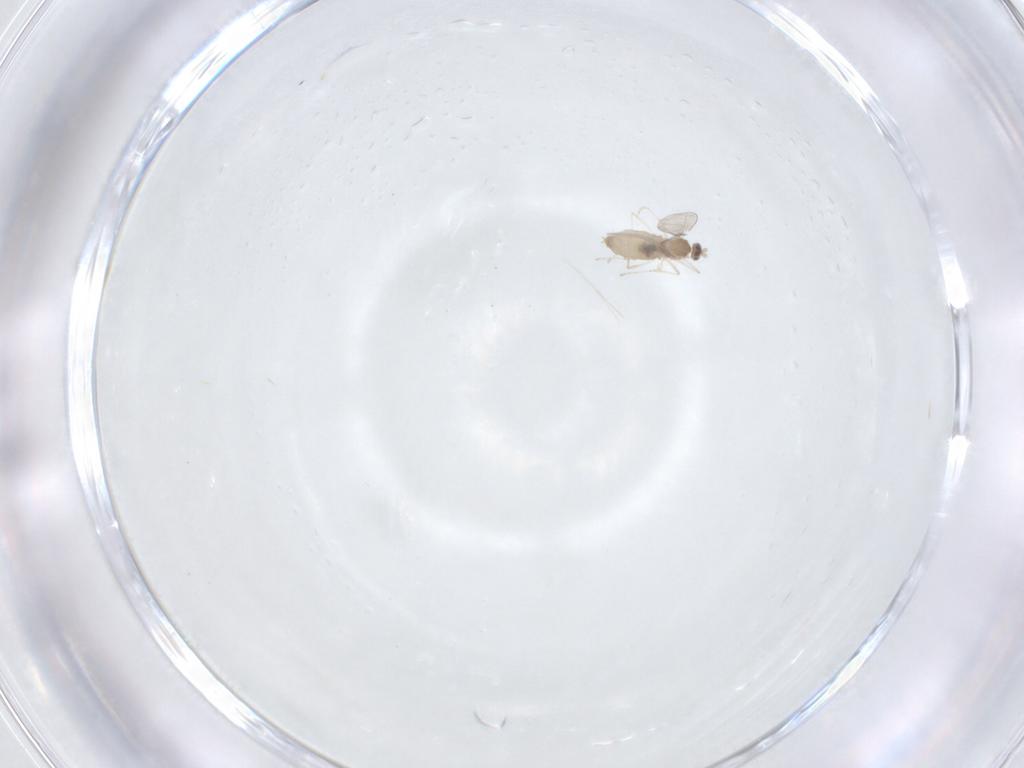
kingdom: Animalia
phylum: Arthropoda
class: Insecta
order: Diptera
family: Cecidomyiidae
